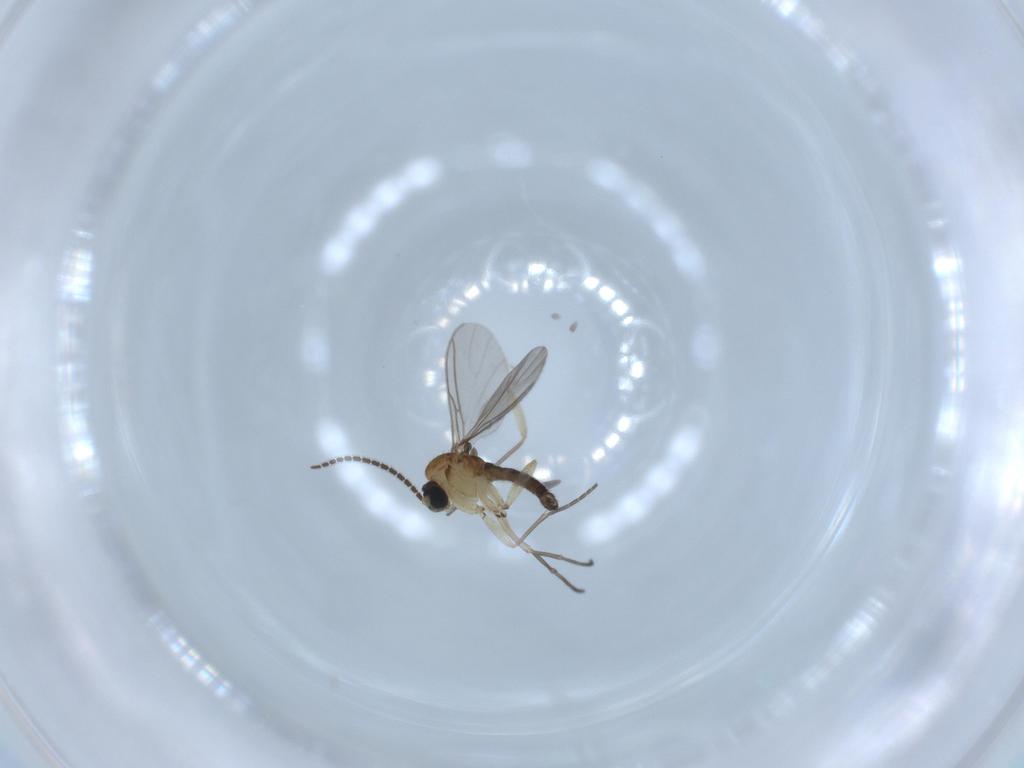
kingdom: Animalia
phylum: Arthropoda
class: Insecta
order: Diptera
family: Sciaridae
